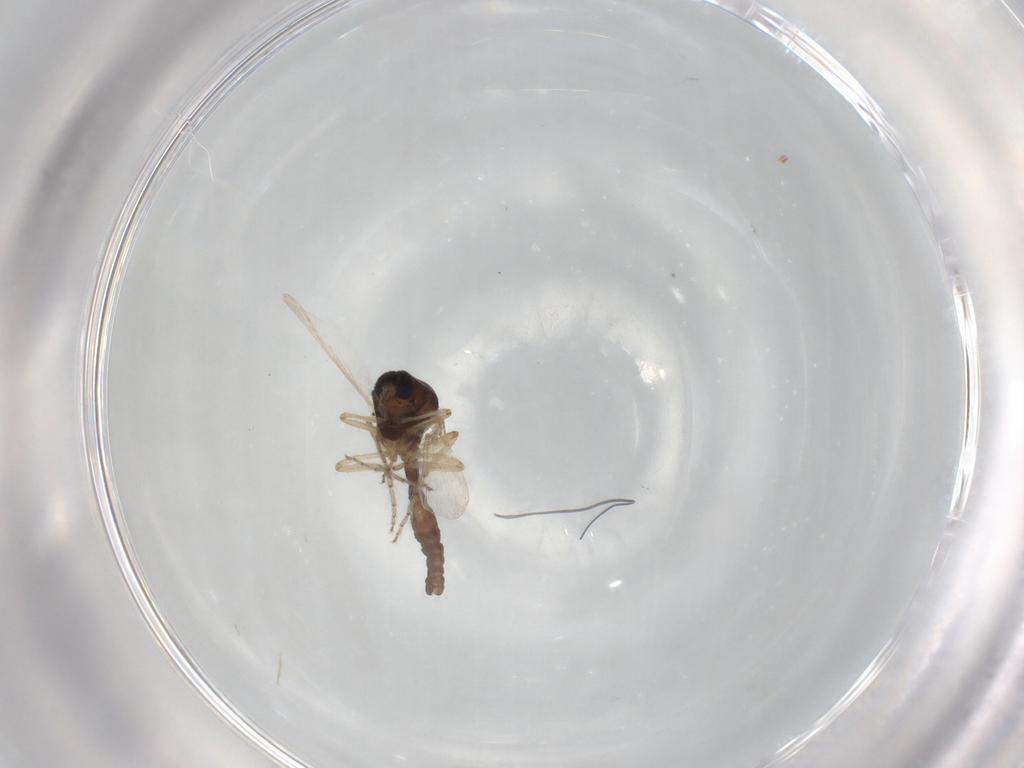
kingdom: Animalia
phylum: Arthropoda
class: Insecta
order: Diptera
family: Ceratopogonidae
